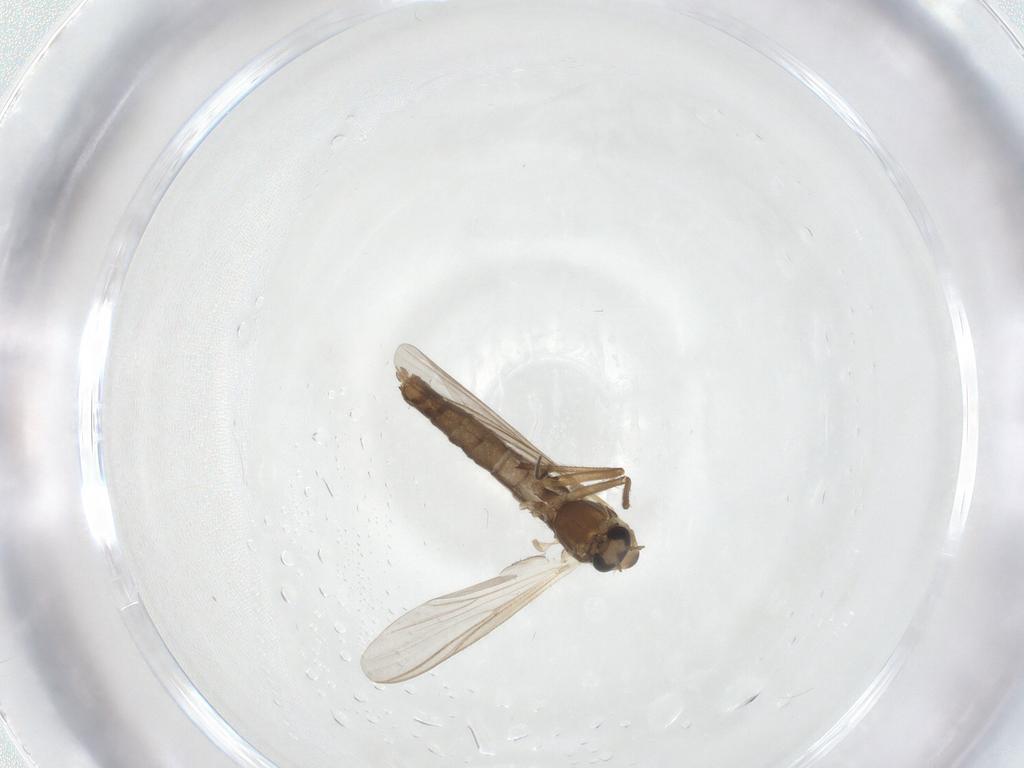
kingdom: Animalia
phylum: Arthropoda
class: Insecta
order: Diptera
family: Chironomidae
